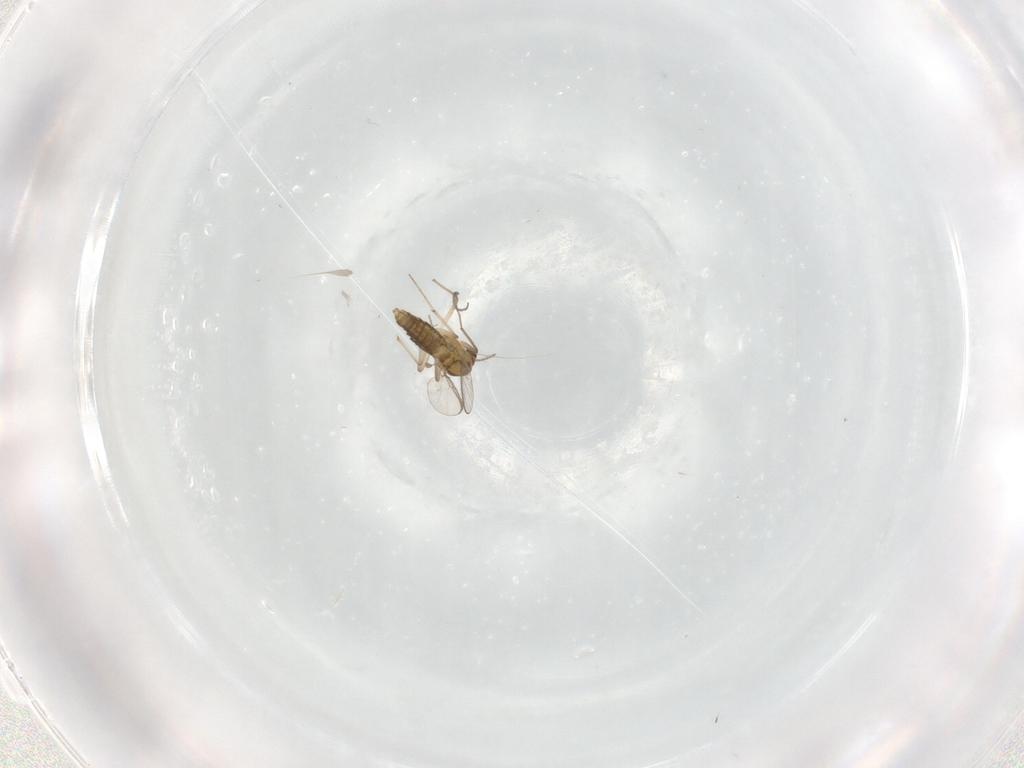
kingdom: Animalia
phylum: Arthropoda
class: Insecta
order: Diptera
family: Chironomidae
